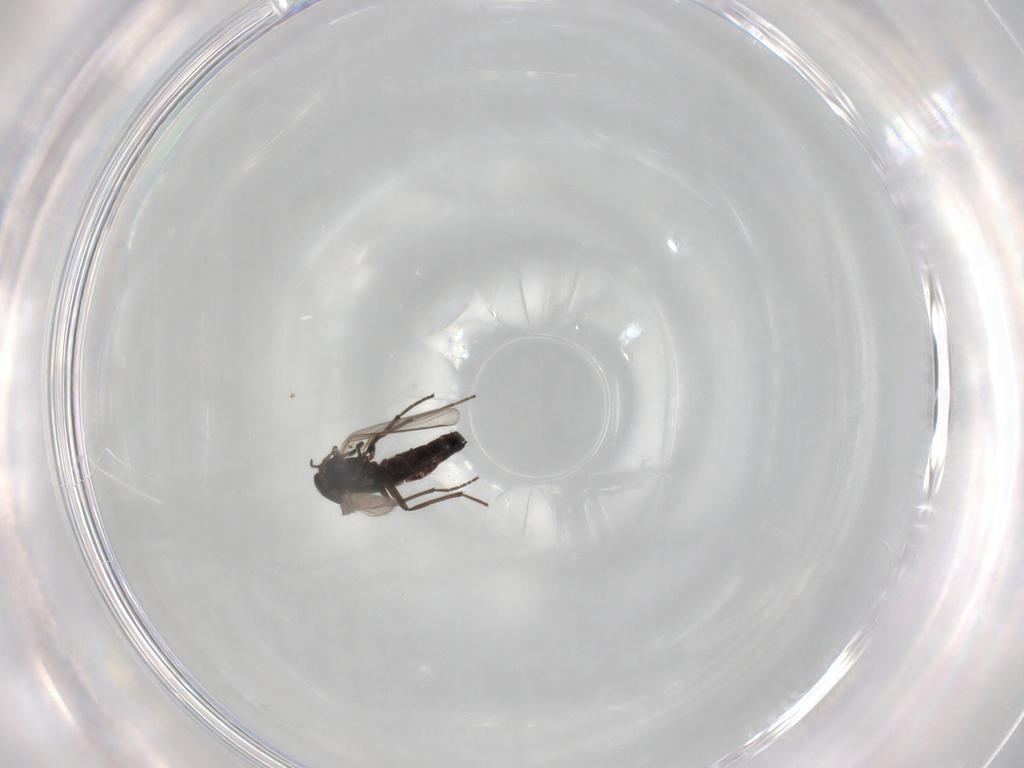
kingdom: Animalia
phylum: Arthropoda
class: Insecta
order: Diptera
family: Chironomidae
